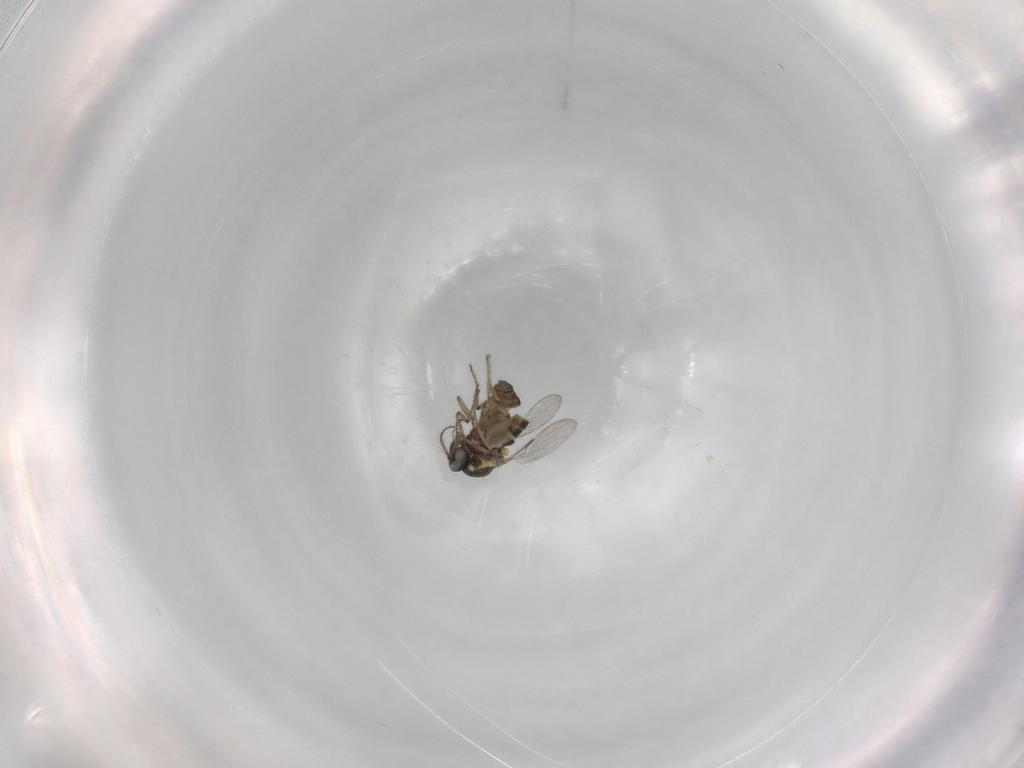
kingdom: Animalia
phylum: Arthropoda
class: Insecta
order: Diptera
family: Ceratopogonidae
